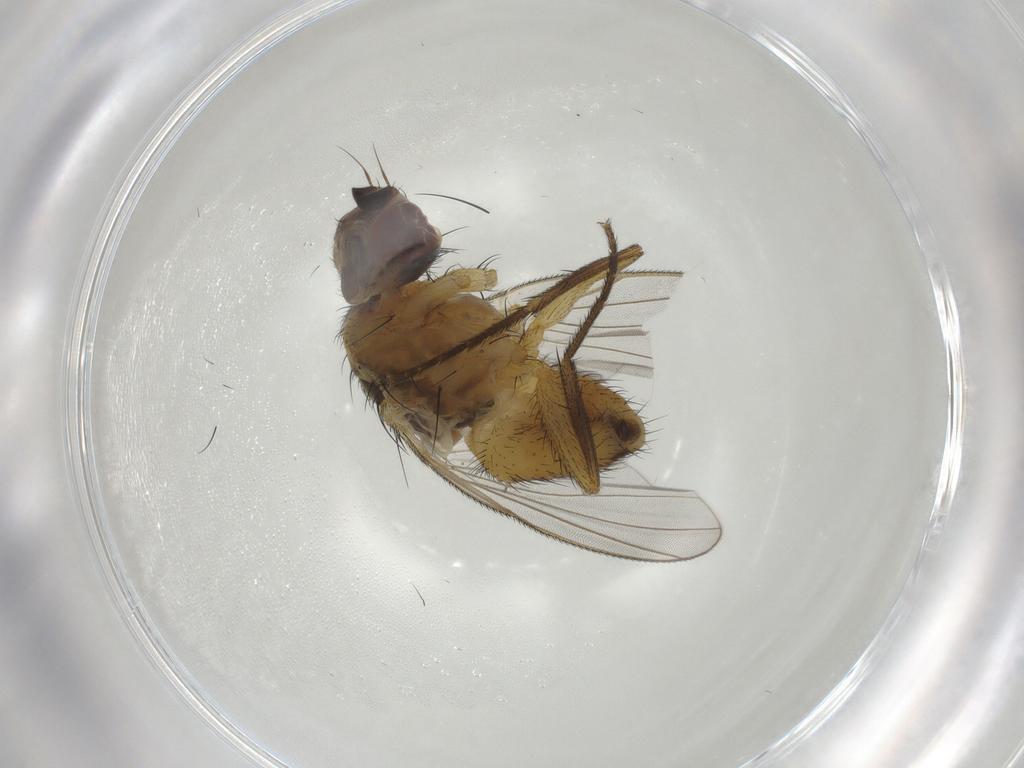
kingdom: Animalia
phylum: Arthropoda
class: Insecta
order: Diptera
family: Muscidae
